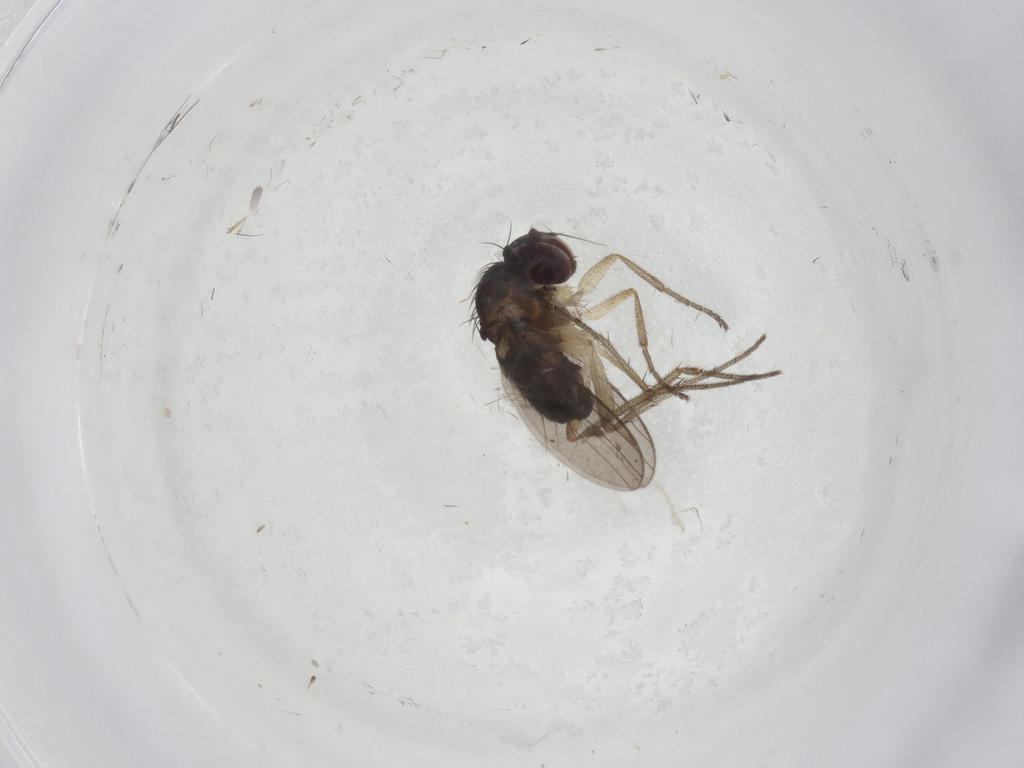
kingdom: Animalia
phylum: Arthropoda
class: Insecta
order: Diptera
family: Dolichopodidae
